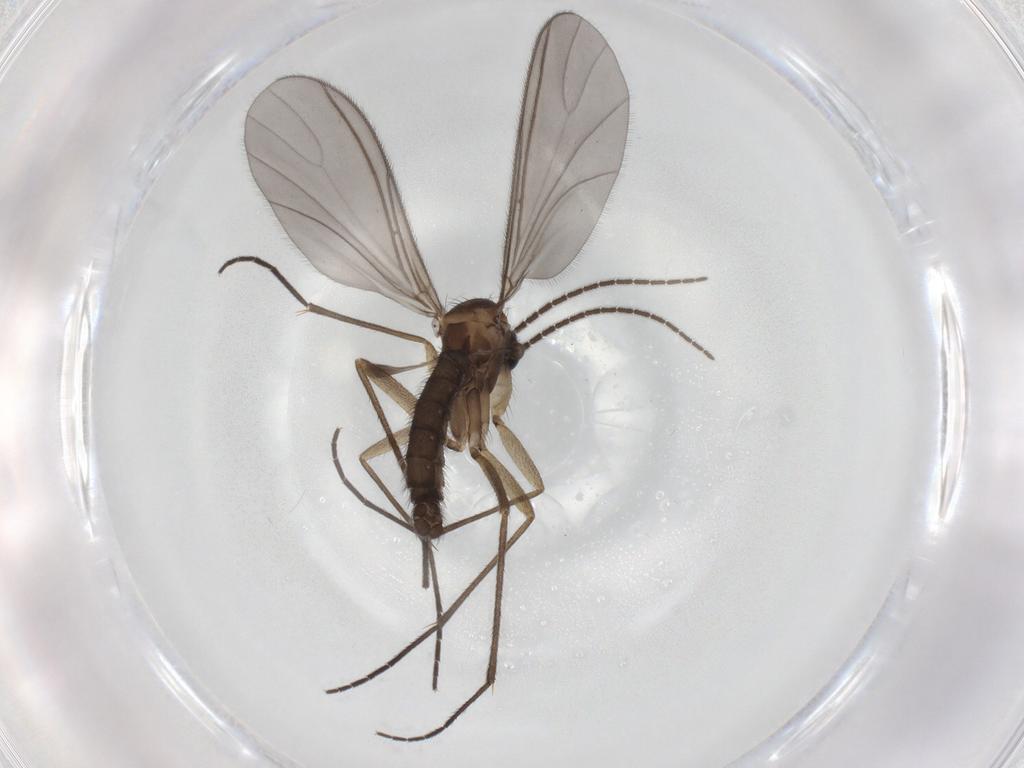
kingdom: Animalia
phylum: Arthropoda
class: Insecta
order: Diptera
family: Sciaridae
